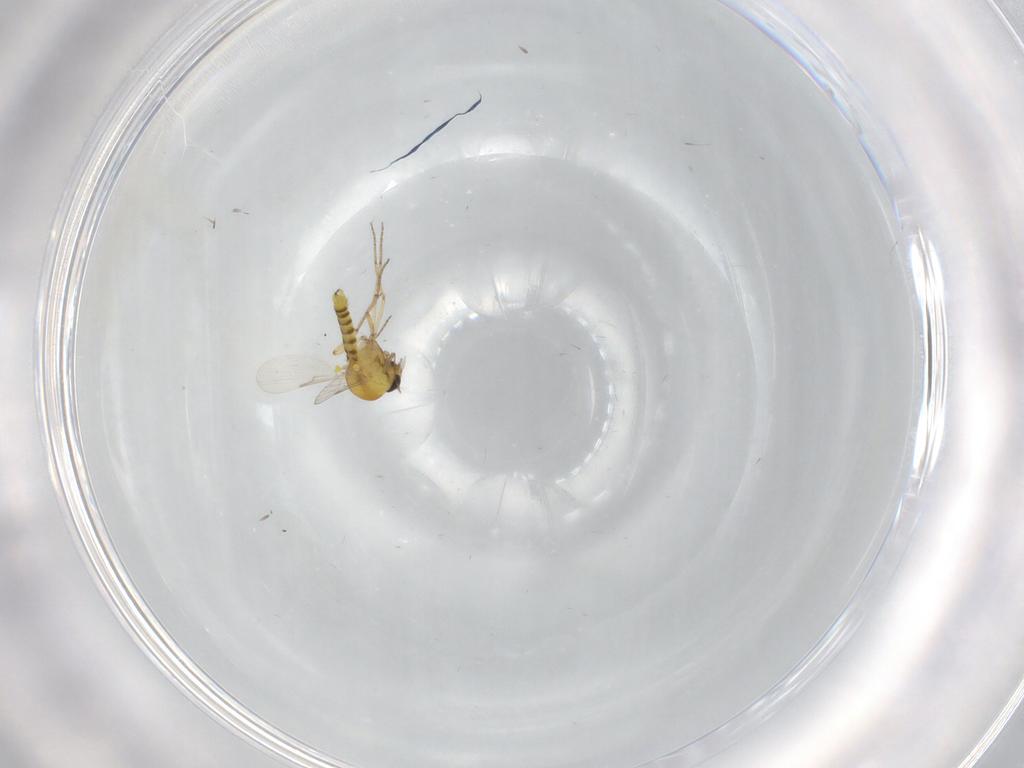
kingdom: Animalia
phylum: Arthropoda
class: Insecta
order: Diptera
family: Ceratopogonidae
